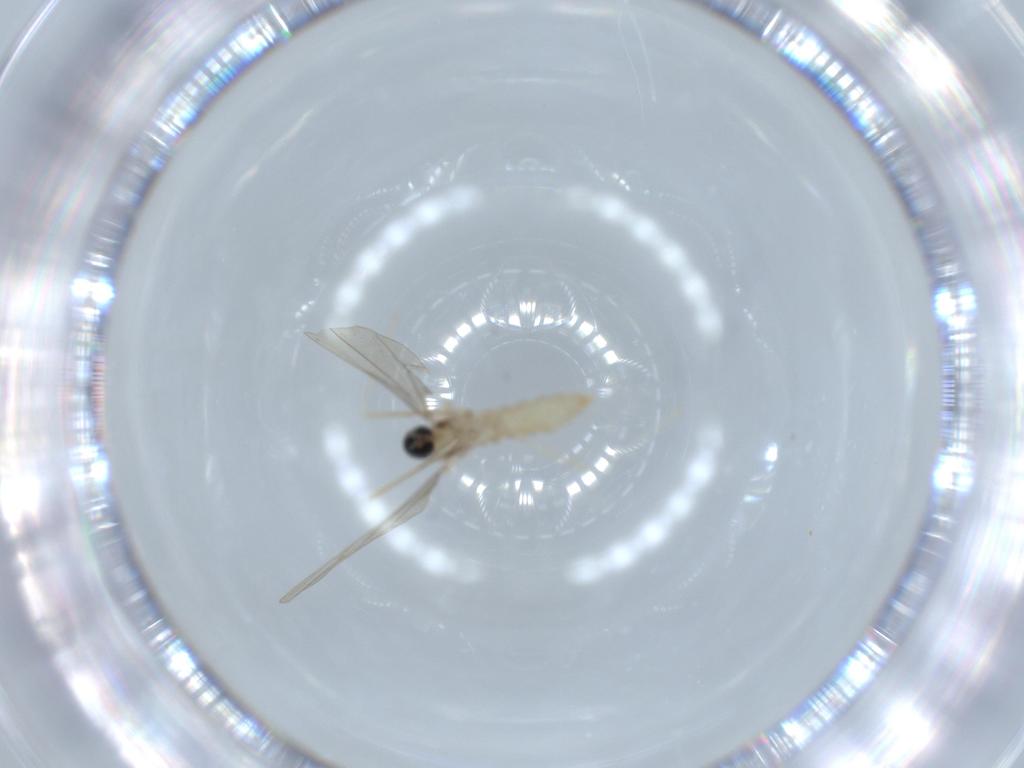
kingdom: Animalia
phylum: Arthropoda
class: Insecta
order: Diptera
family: Cecidomyiidae
